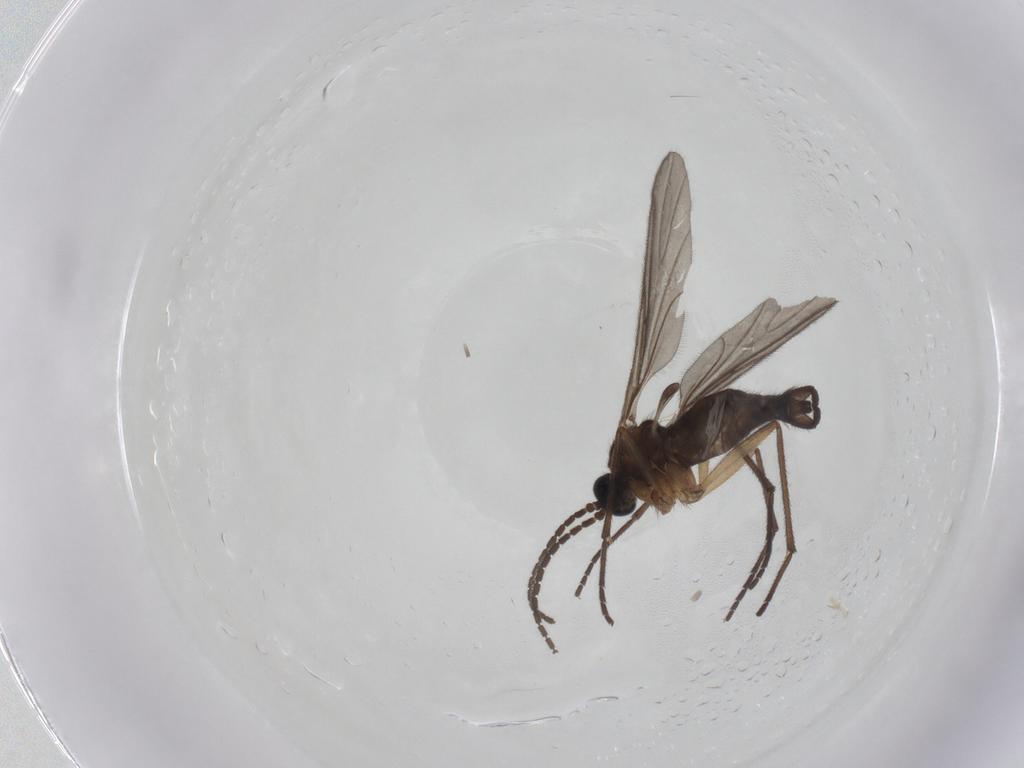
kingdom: Animalia
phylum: Arthropoda
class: Insecta
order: Diptera
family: Sciaridae
